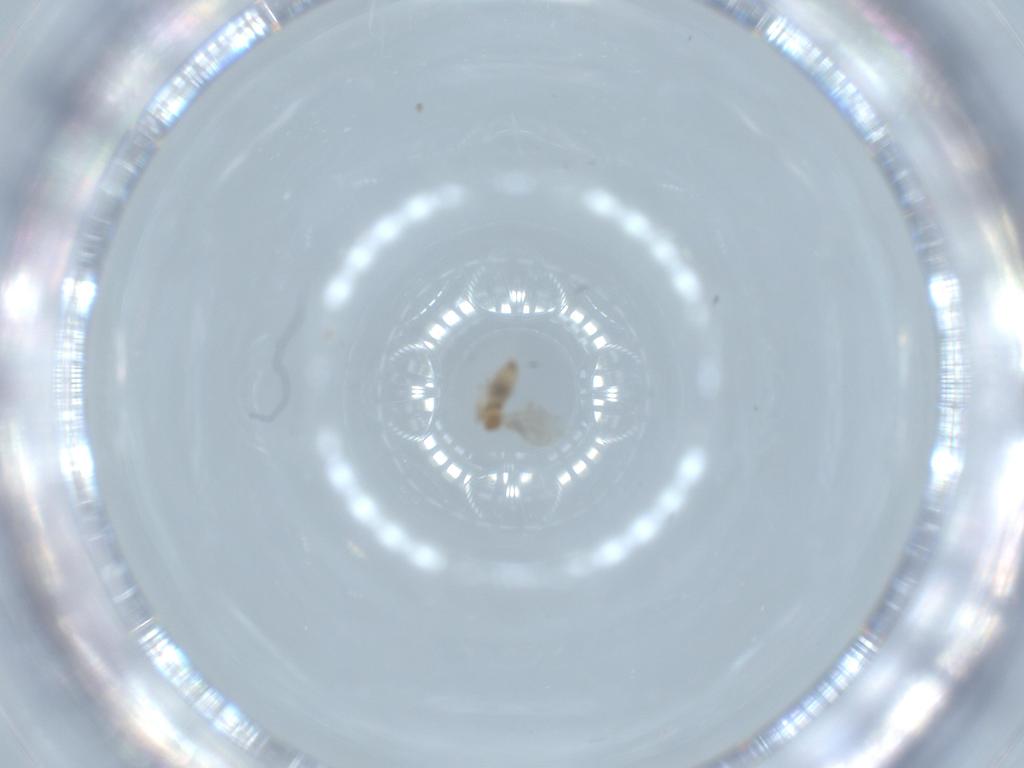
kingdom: Animalia
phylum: Arthropoda
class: Insecta
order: Diptera
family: Cecidomyiidae
